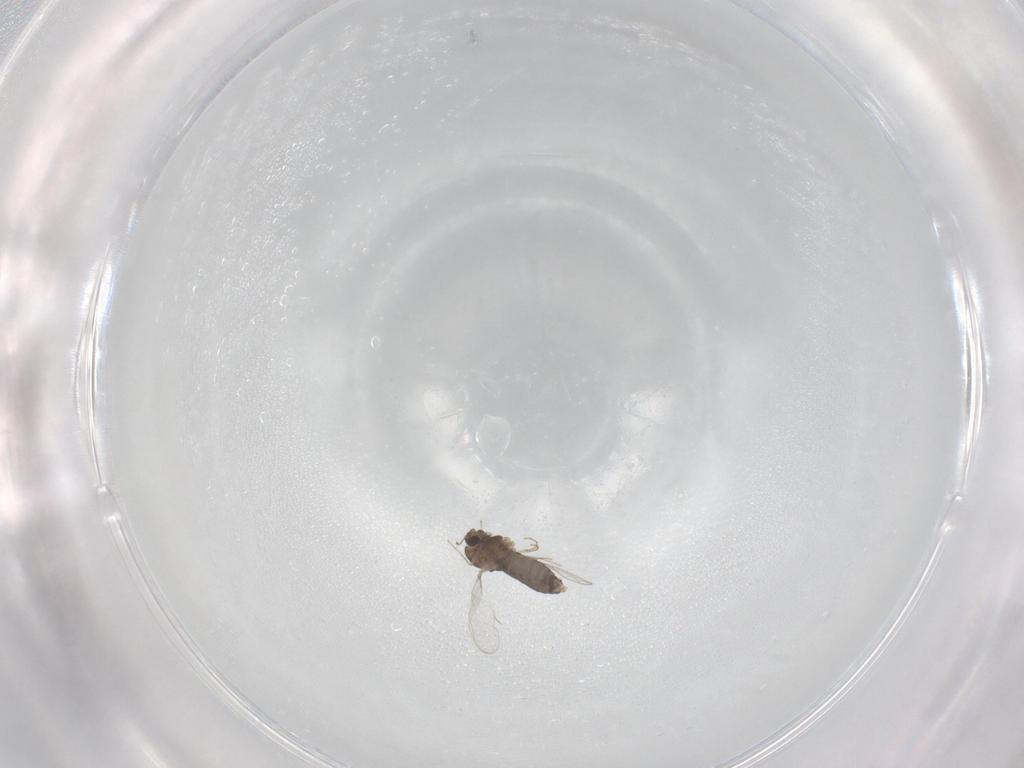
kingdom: Animalia
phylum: Arthropoda
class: Insecta
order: Diptera
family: Chironomidae
